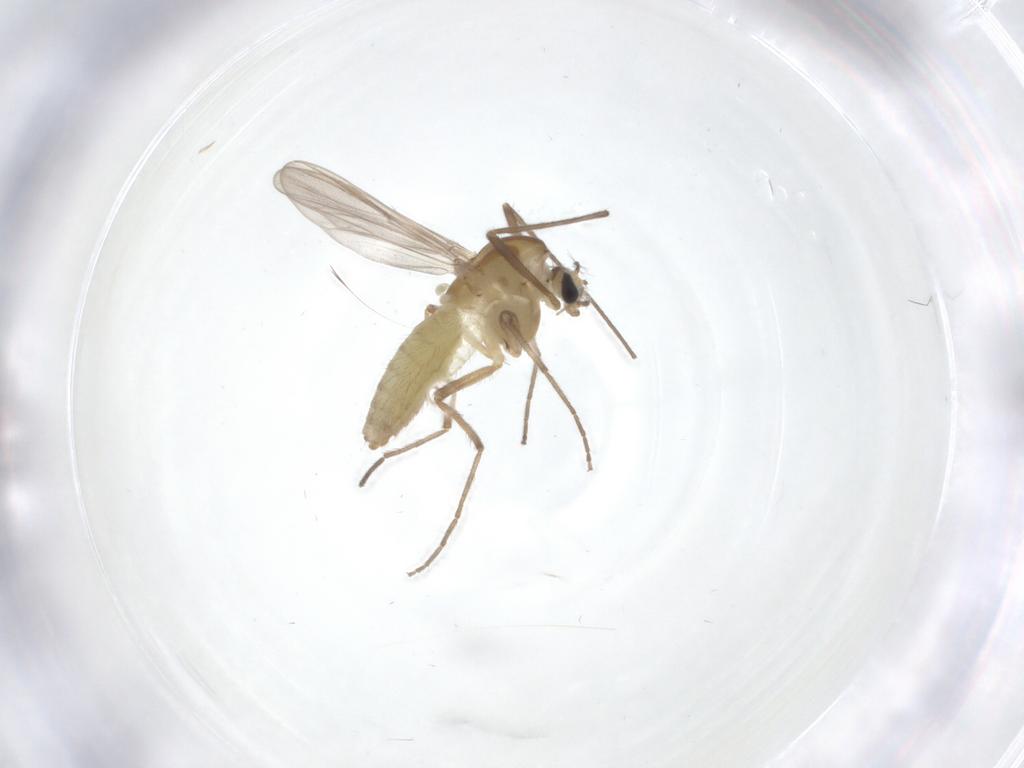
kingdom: Animalia
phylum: Arthropoda
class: Insecta
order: Diptera
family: Chironomidae
